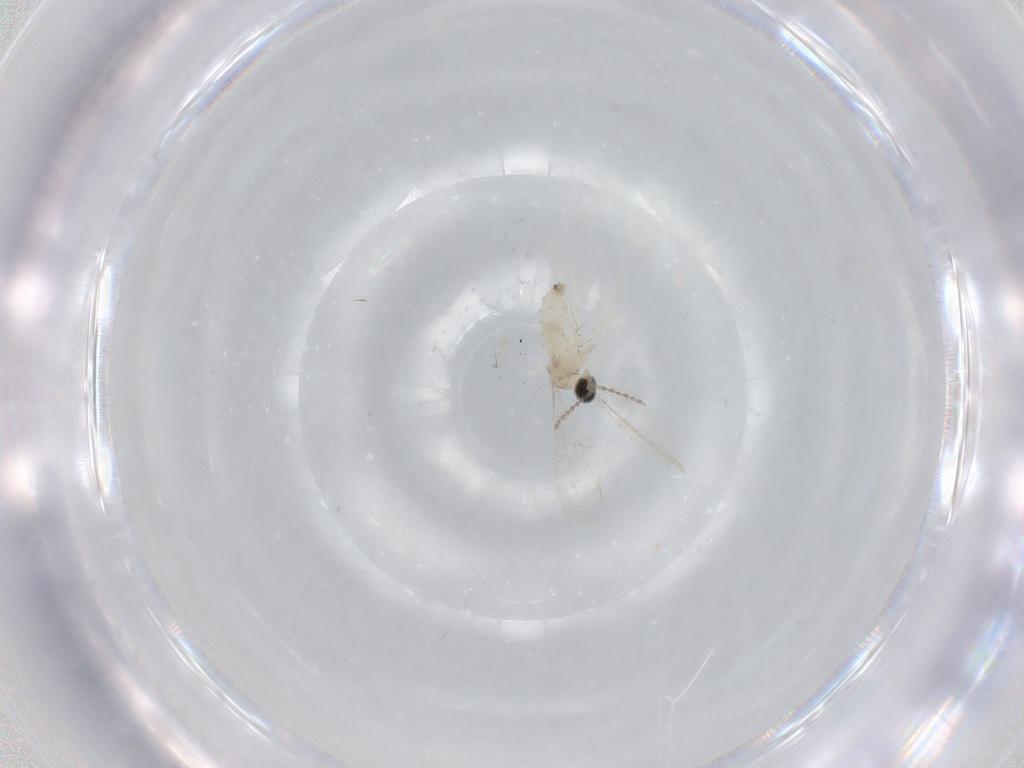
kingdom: Animalia
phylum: Arthropoda
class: Insecta
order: Diptera
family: Cecidomyiidae
